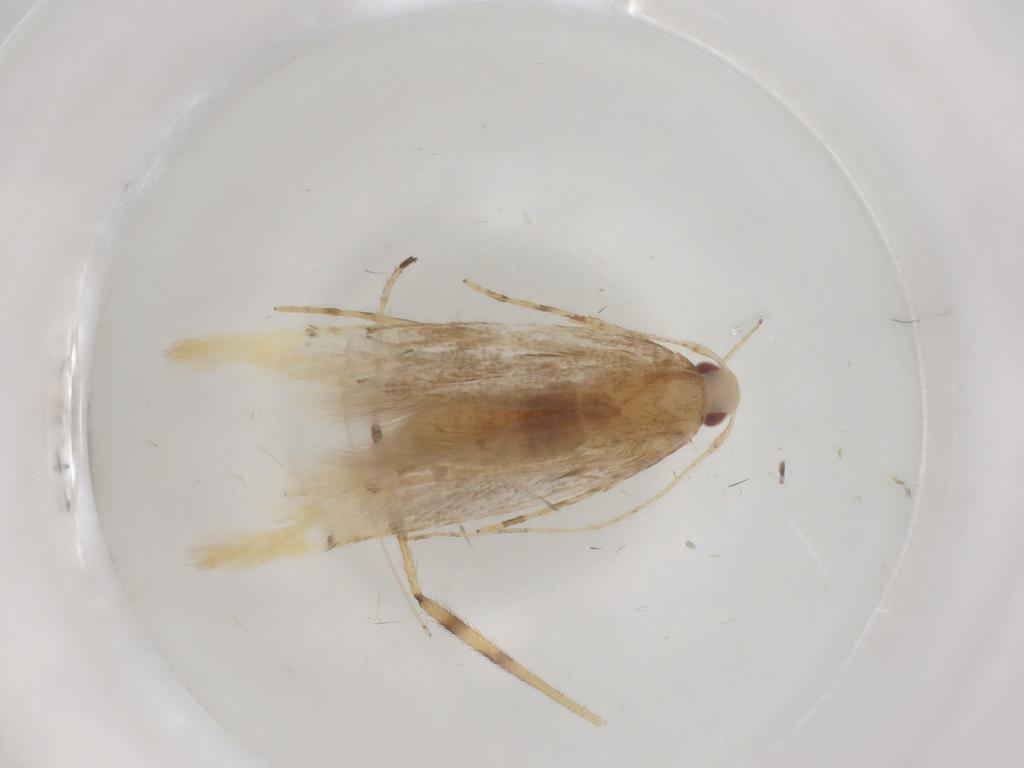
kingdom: Animalia
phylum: Arthropoda
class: Insecta
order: Lepidoptera
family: Cosmopterigidae
